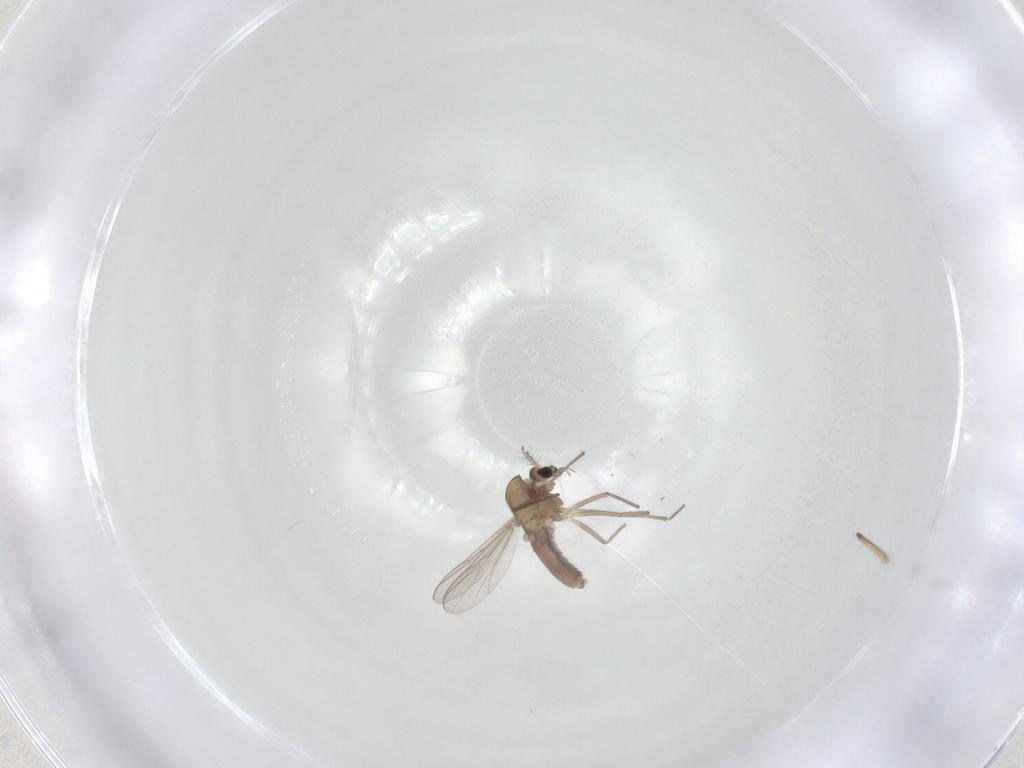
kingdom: Animalia
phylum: Arthropoda
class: Insecta
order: Diptera
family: Chironomidae
